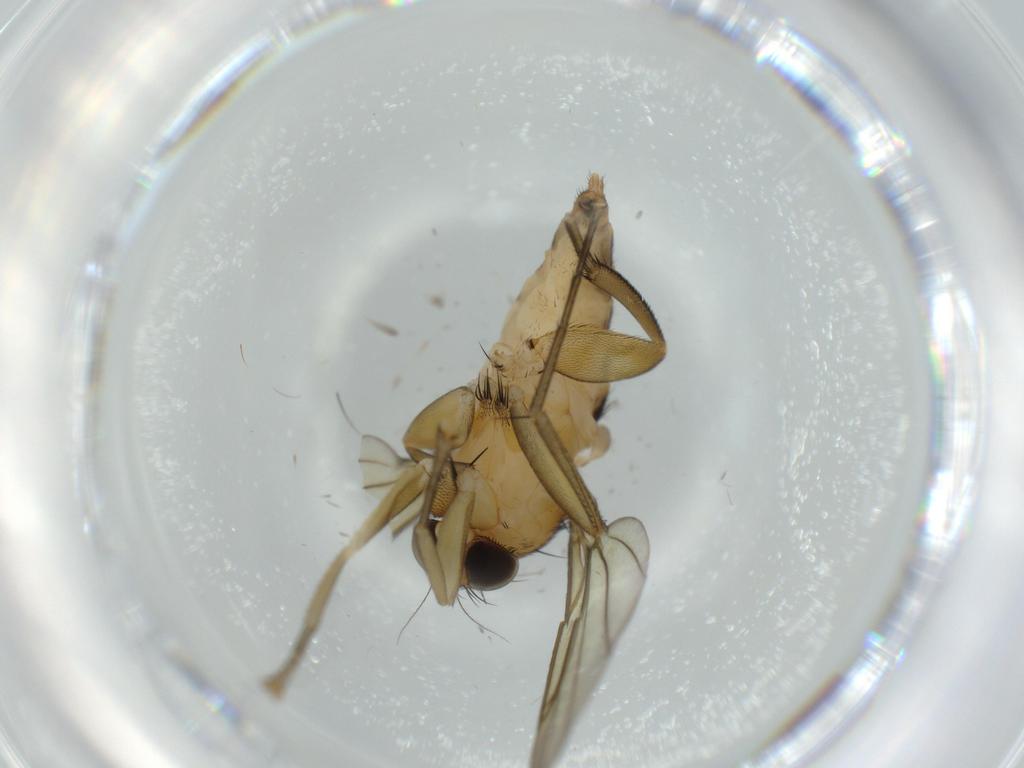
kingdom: Animalia
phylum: Arthropoda
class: Insecta
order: Diptera
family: Phoridae
